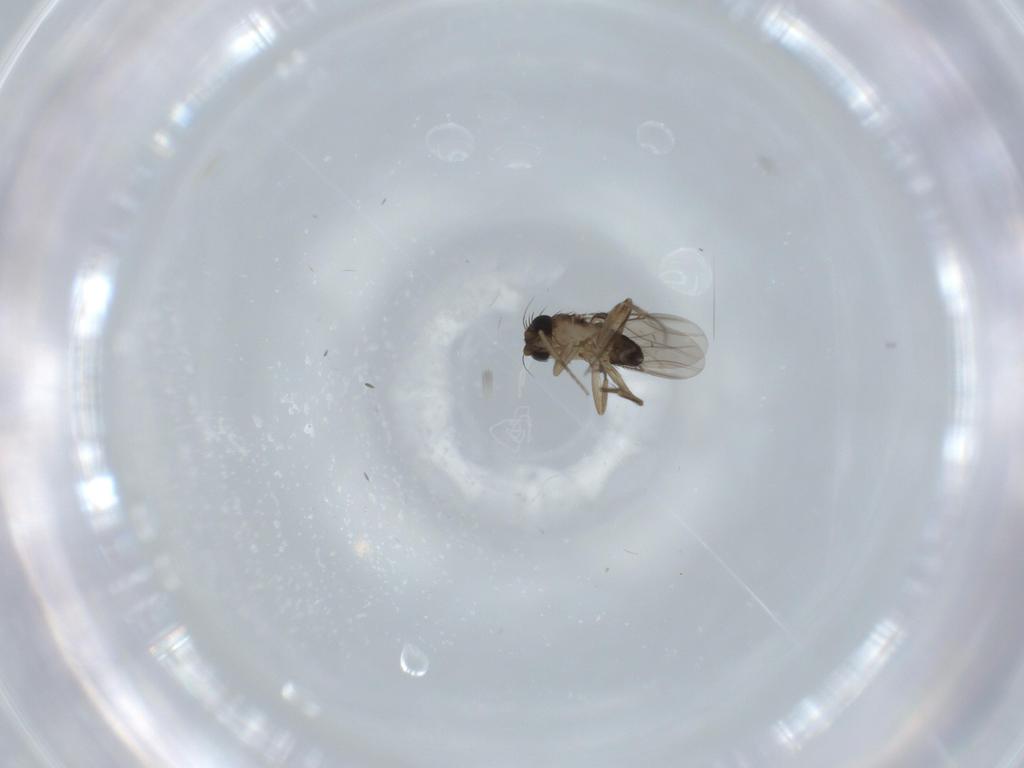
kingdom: Animalia
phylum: Arthropoda
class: Insecta
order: Diptera
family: Phoridae
